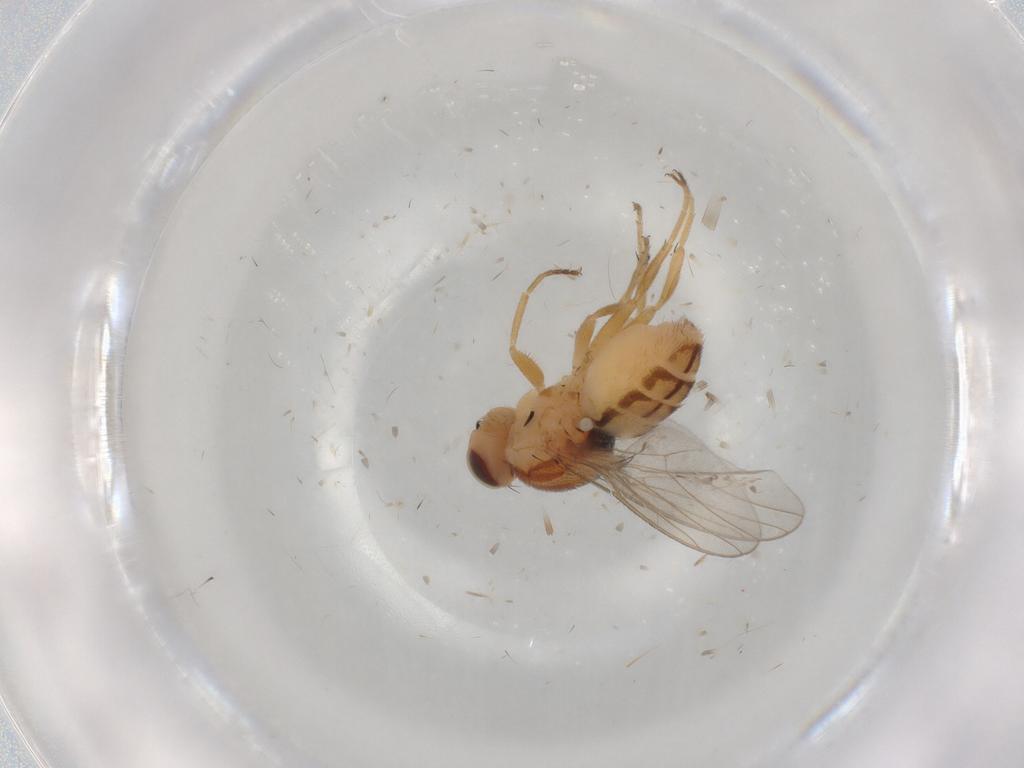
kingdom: Animalia
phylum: Arthropoda
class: Insecta
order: Diptera
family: Chloropidae
